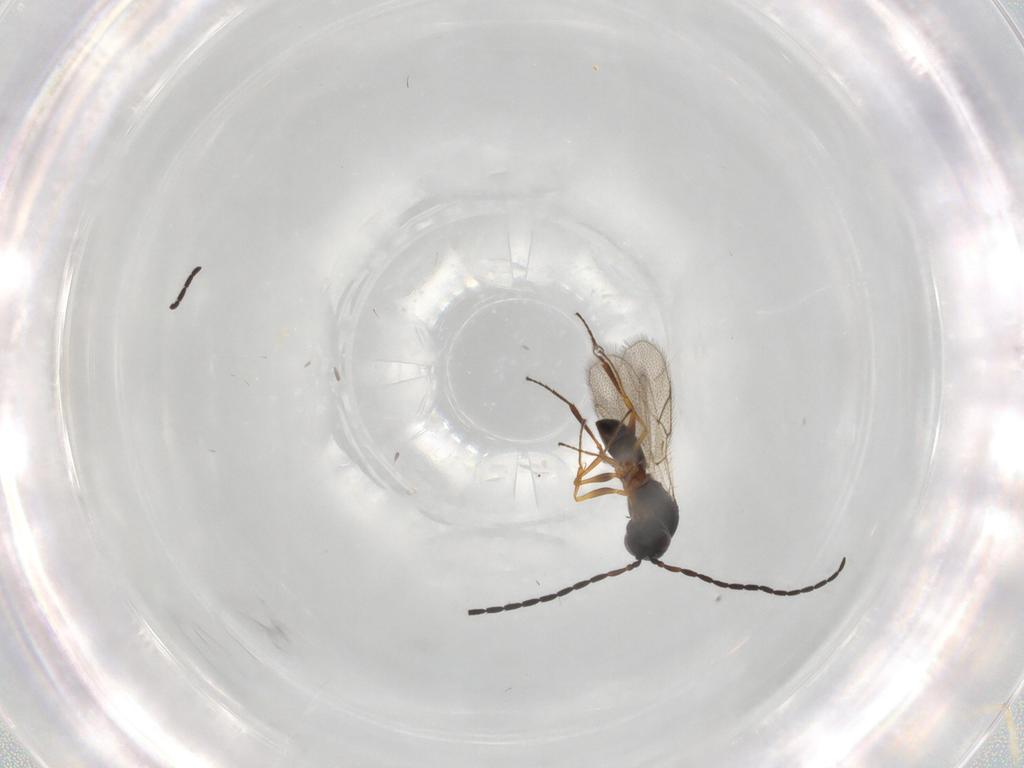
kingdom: Animalia
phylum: Arthropoda
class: Insecta
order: Hymenoptera
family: Figitidae
